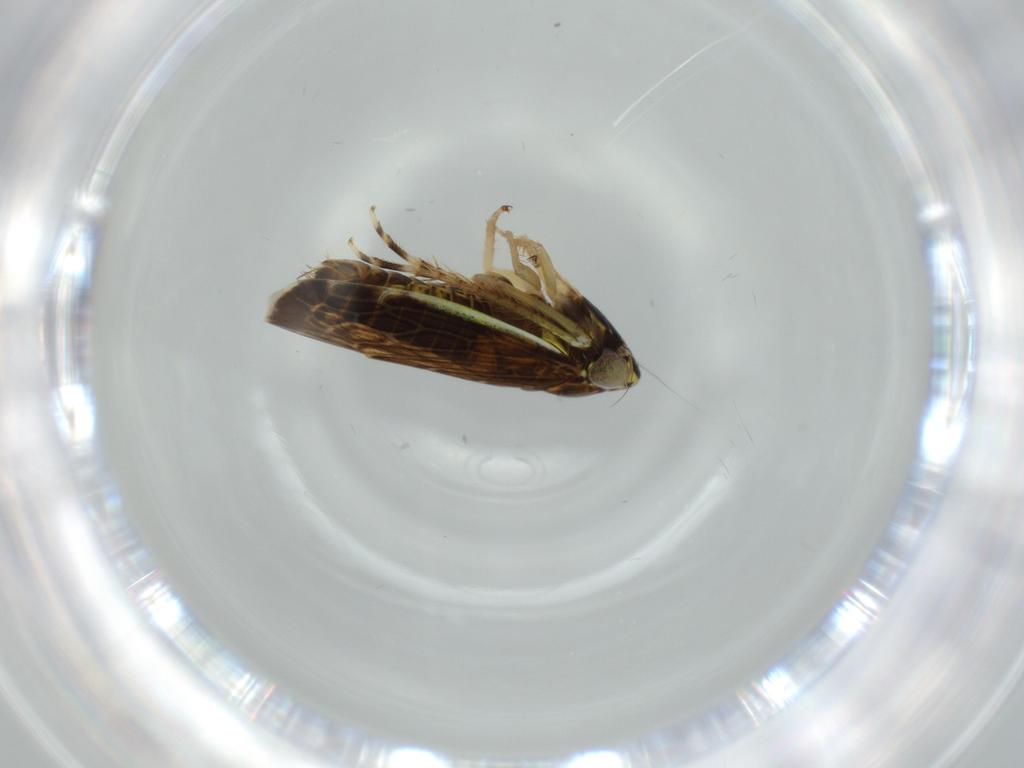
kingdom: Animalia
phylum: Arthropoda
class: Insecta
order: Hemiptera
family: Cicadellidae
